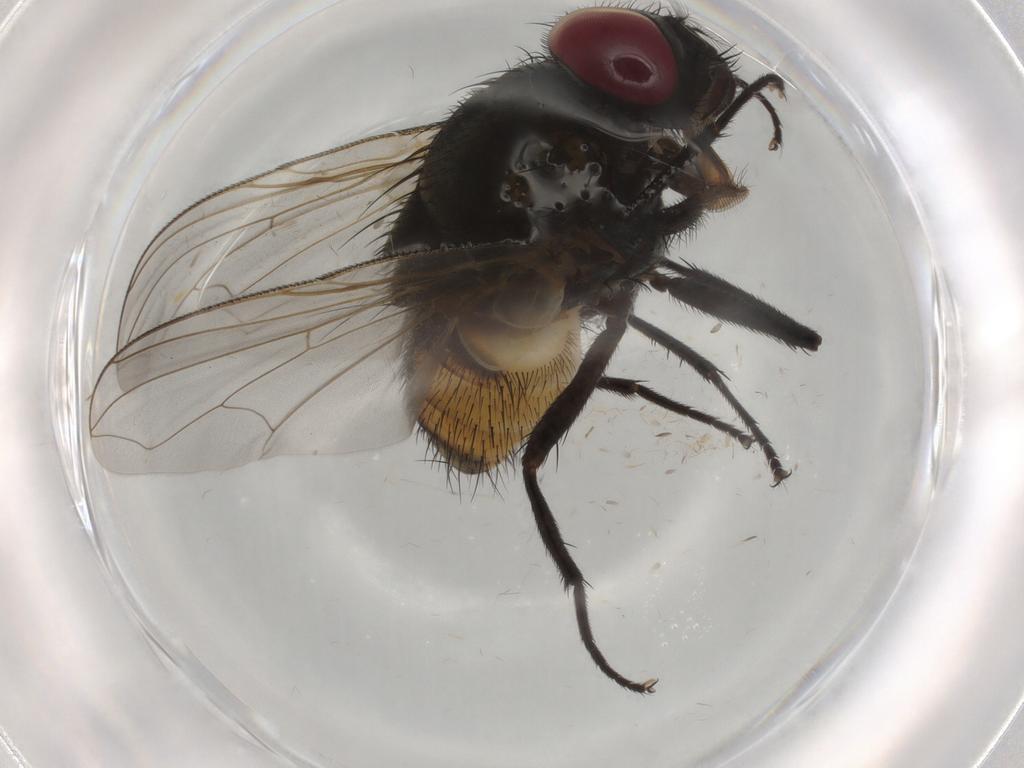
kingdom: Animalia
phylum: Arthropoda
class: Insecta
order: Diptera
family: Muscidae
